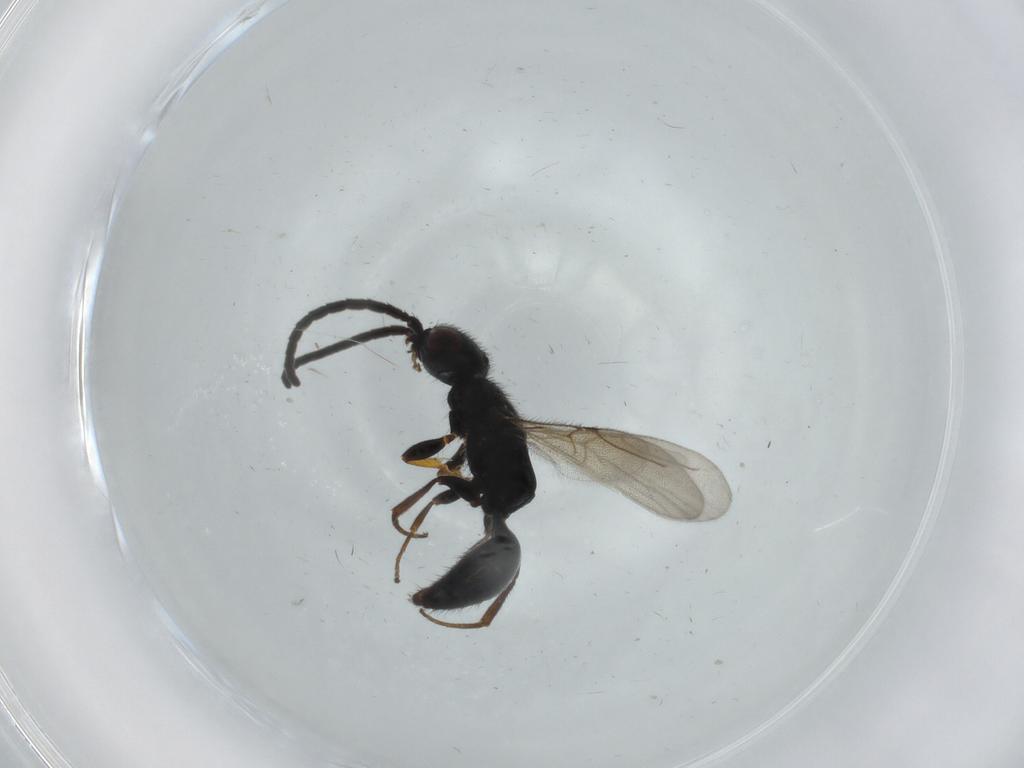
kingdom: Animalia
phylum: Arthropoda
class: Insecta
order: Hymenoptera
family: Bethylidae
